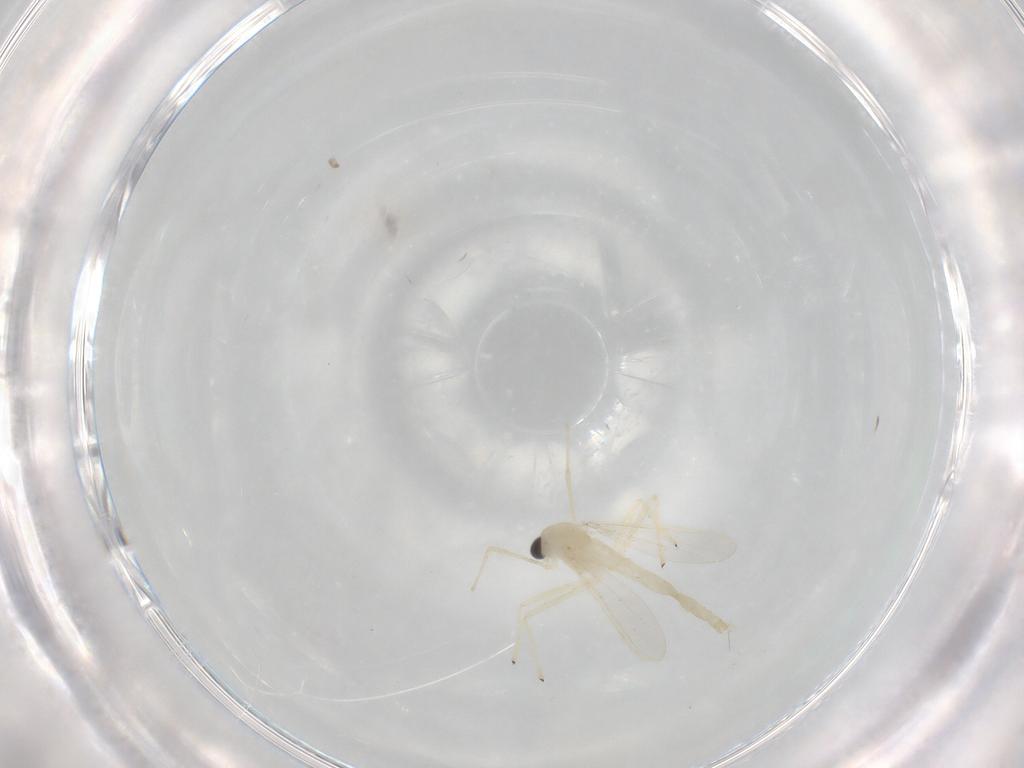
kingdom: Animalia
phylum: Arthropoda
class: Insecta
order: Diptera
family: Chironomidae
